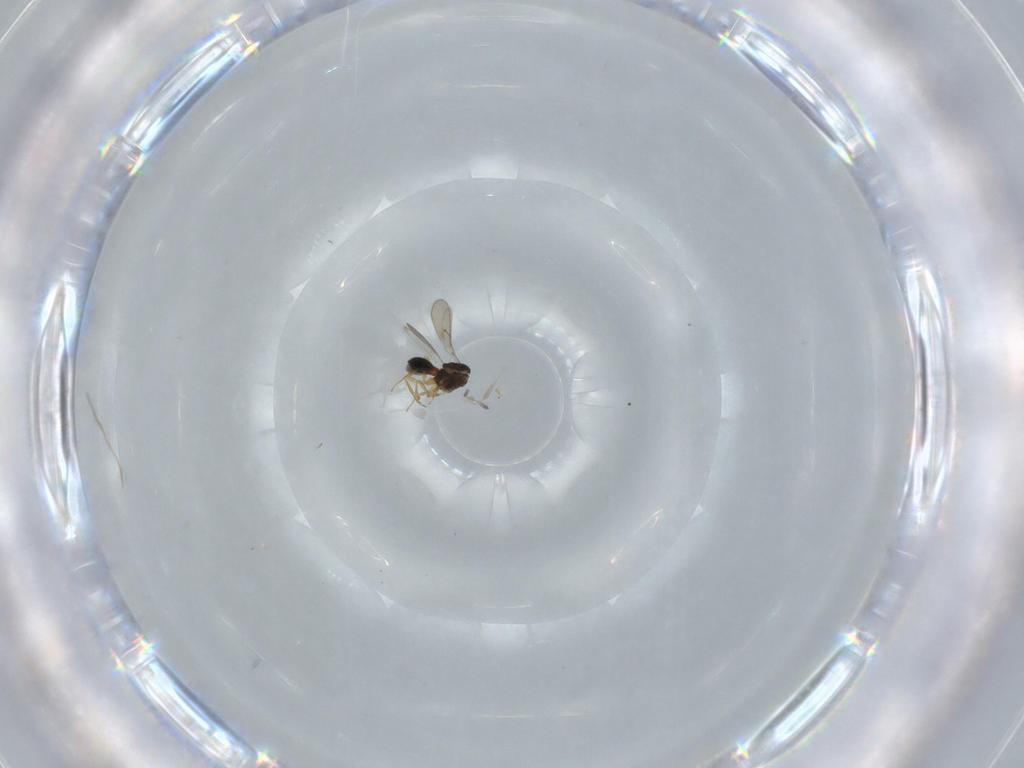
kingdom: Animalia
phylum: Arthropoda
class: Insecta
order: Hymenoptera
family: Scelionidae
